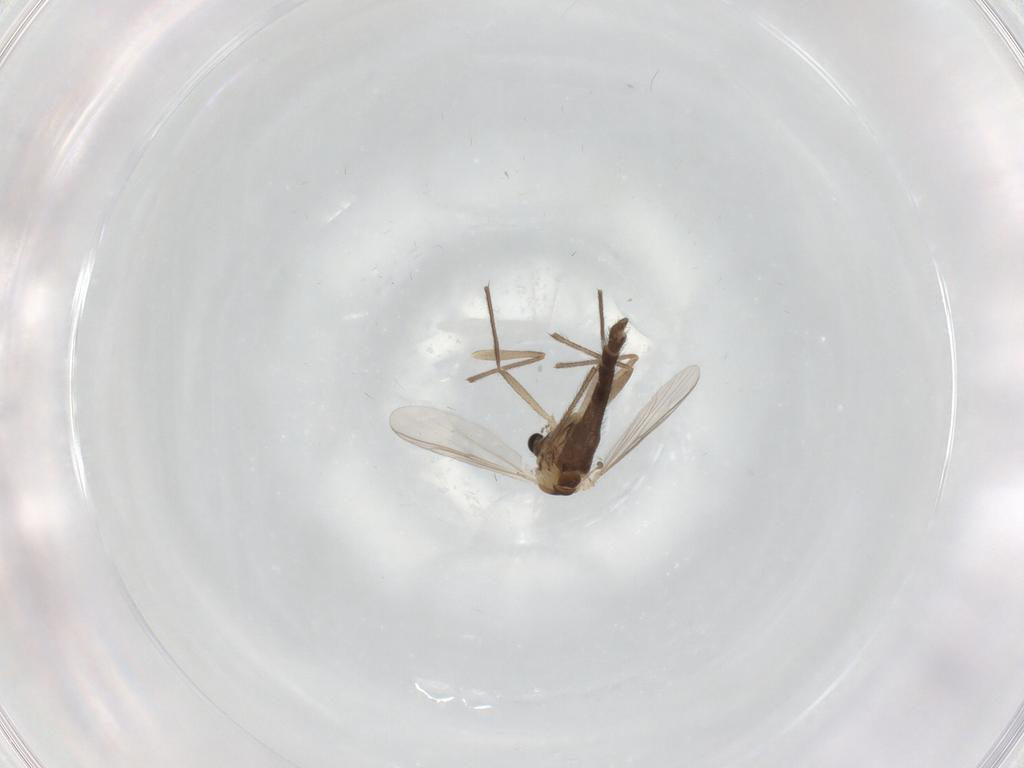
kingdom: Animalia
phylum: Arthropoda
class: Insecta
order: Diptera
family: Chironomidae
